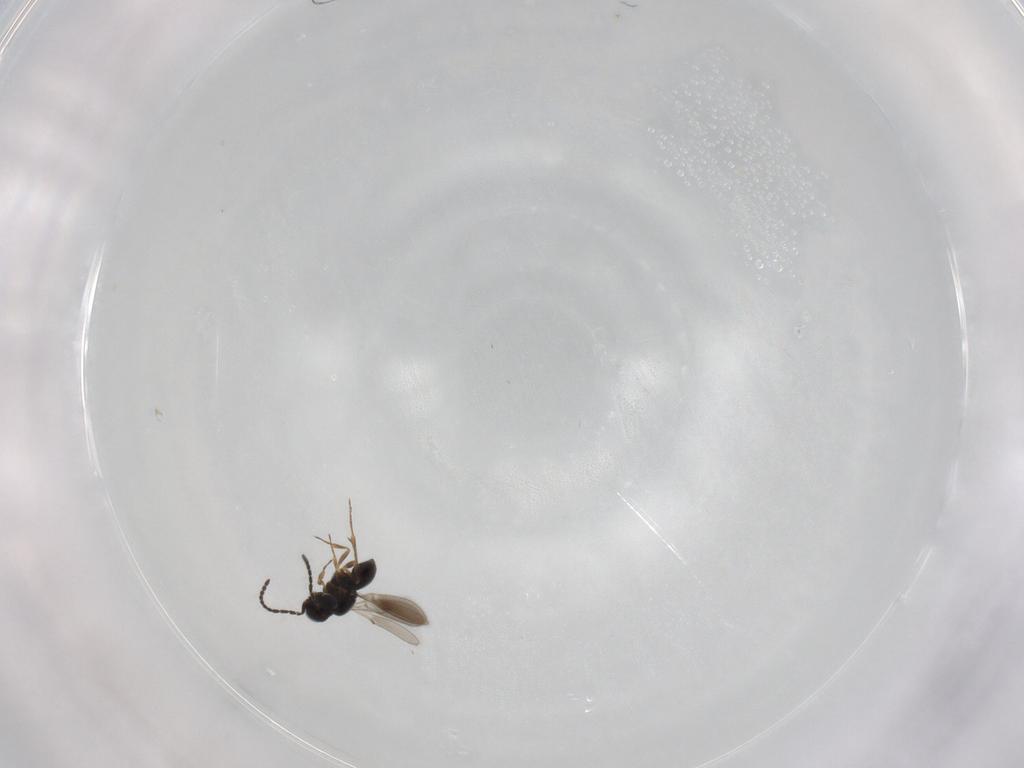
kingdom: Animalia
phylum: Arthropoda
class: Insecta
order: Hymenoptera
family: Scelionidae
